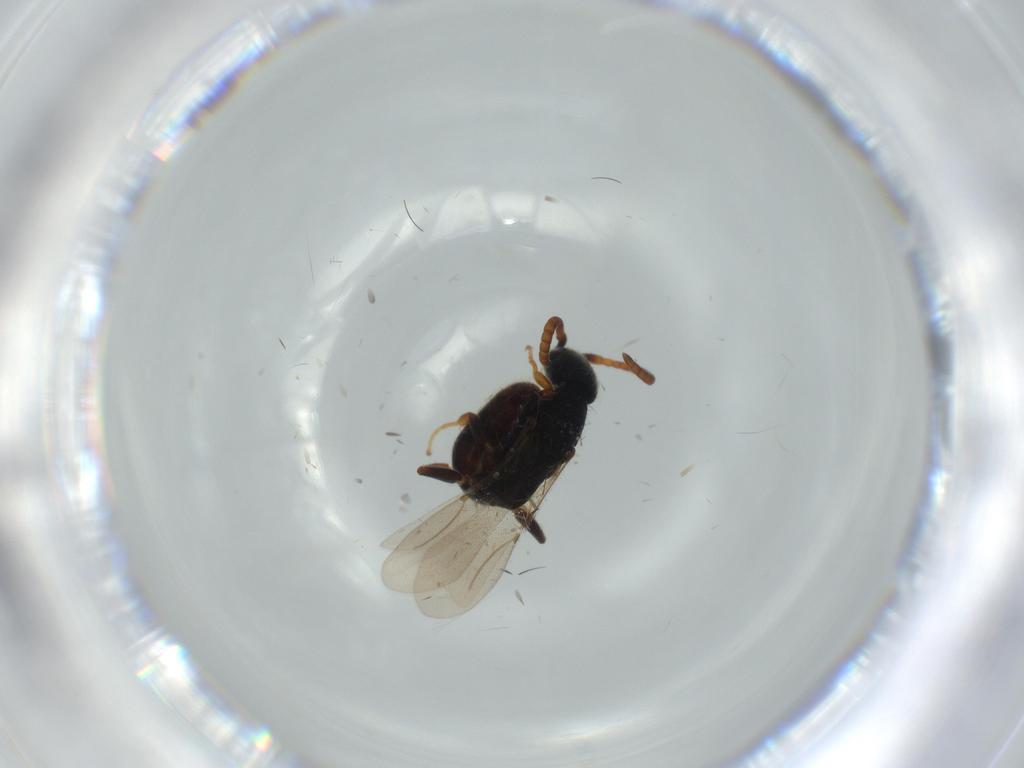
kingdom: Animalia
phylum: Arthropoda
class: Insecta
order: Hymenoptera
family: Bethylidae
